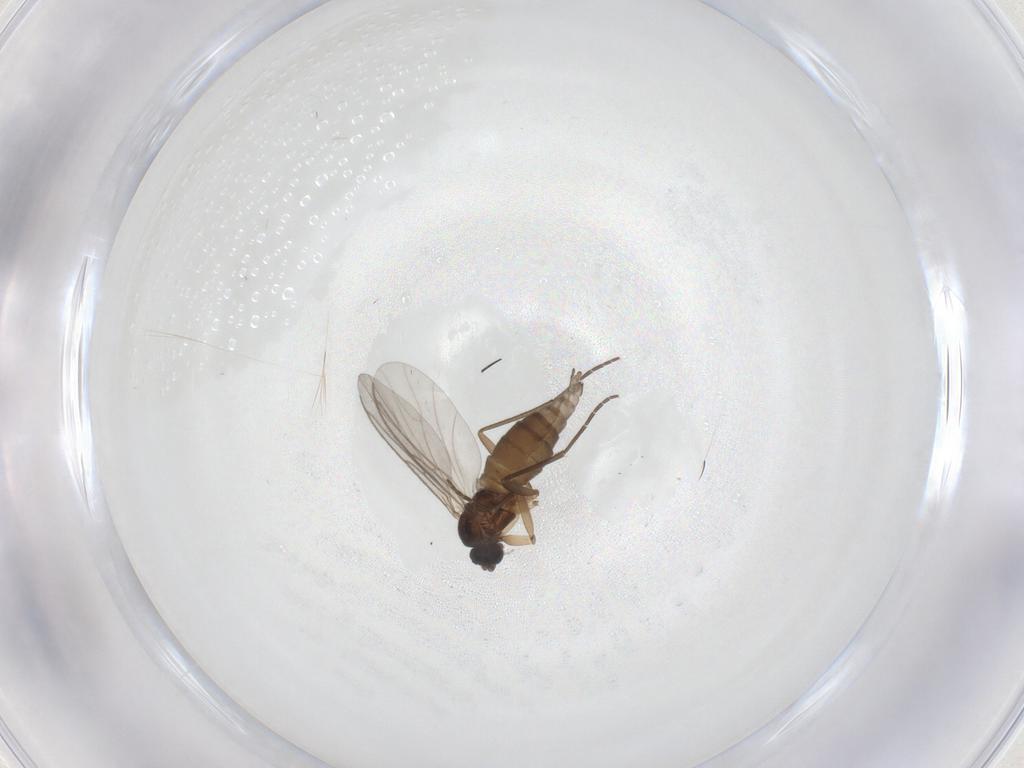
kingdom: Animalia
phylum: Arthropoda
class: Insecta
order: Diptera
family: Sciaridae
